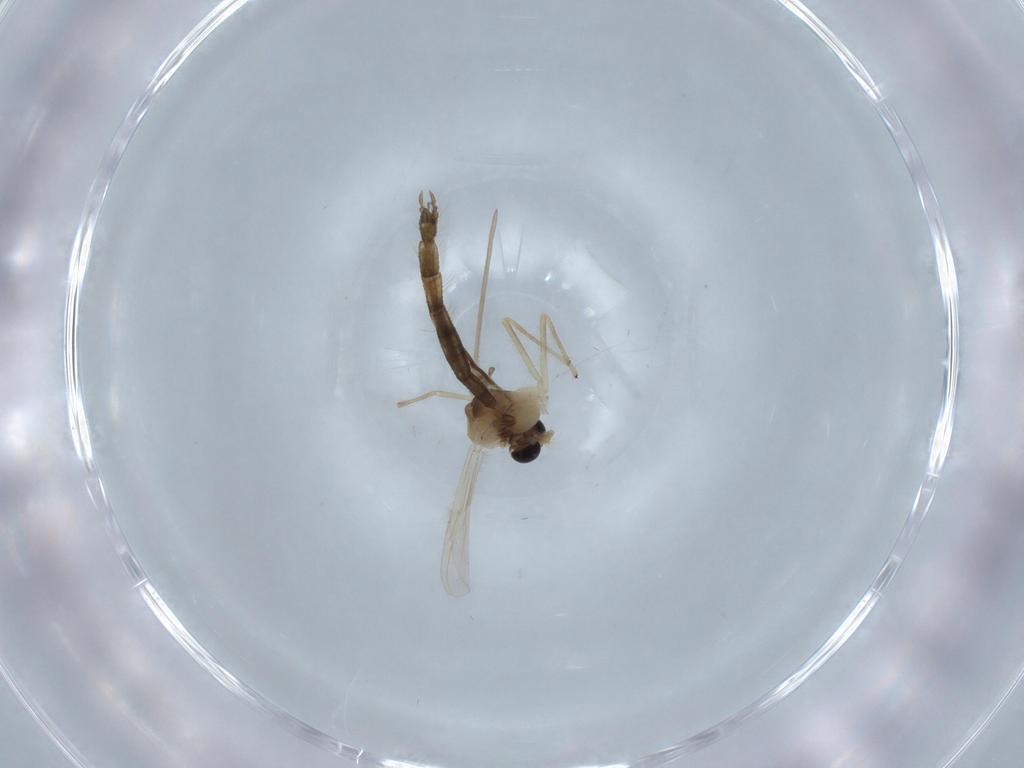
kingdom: Animalia
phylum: Arthropoda
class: Insecta
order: Diptera
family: Chironomidae
